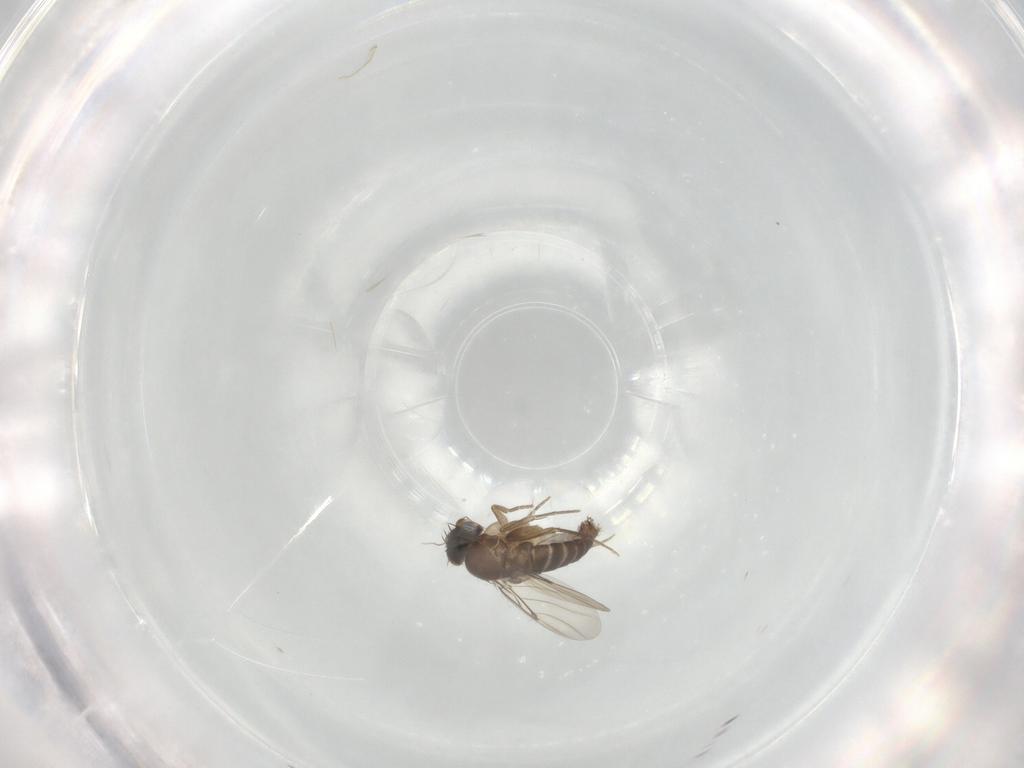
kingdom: Animalia
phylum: Arthropoda
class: Insecta
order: Diptera
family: Phoridae
